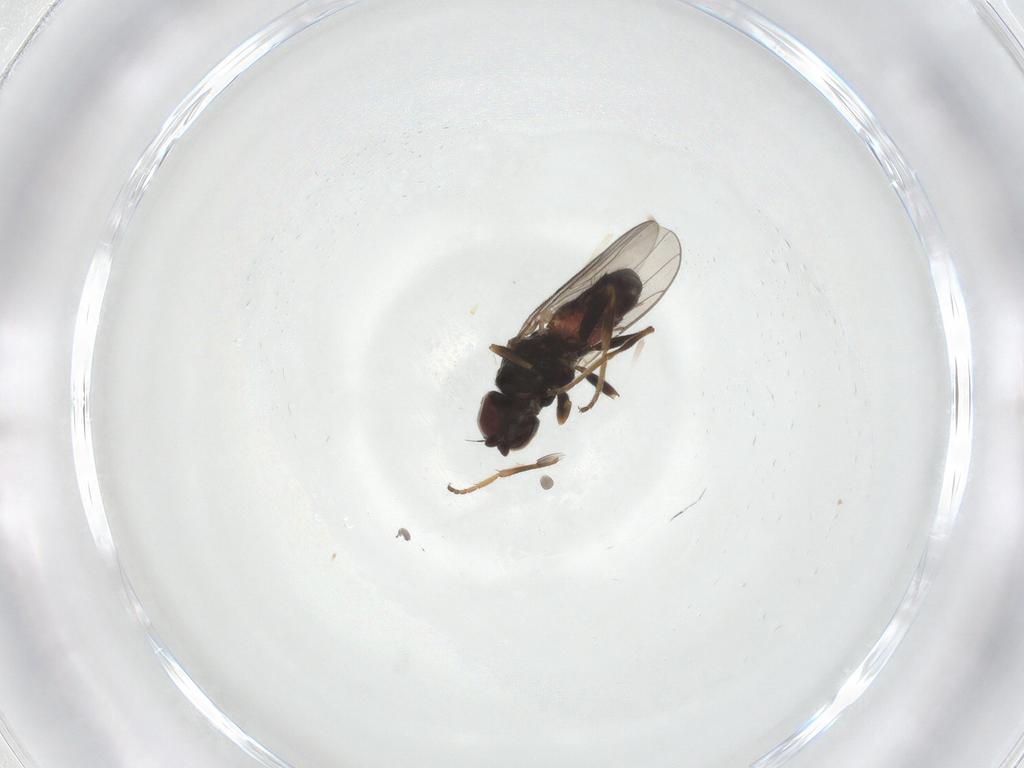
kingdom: Animalia
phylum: Arthropoda
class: Insecta
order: Diptera
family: Chloropidae
